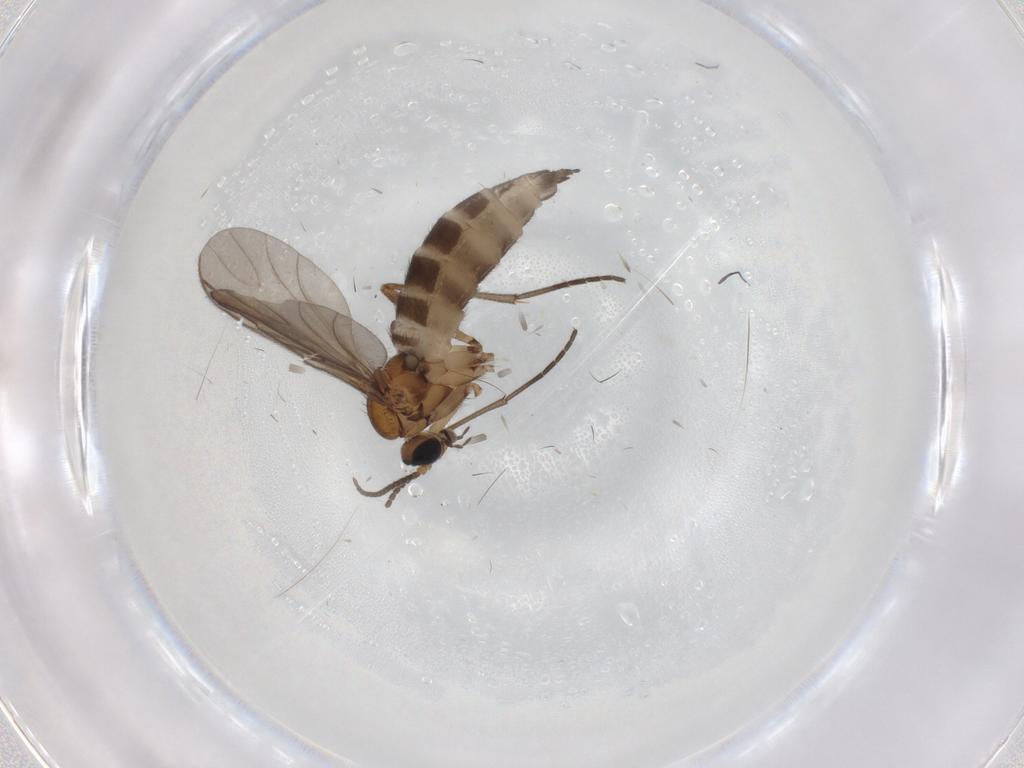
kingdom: Animalia
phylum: Arthropoda
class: Insecta
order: Diptera
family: Sciaridae
